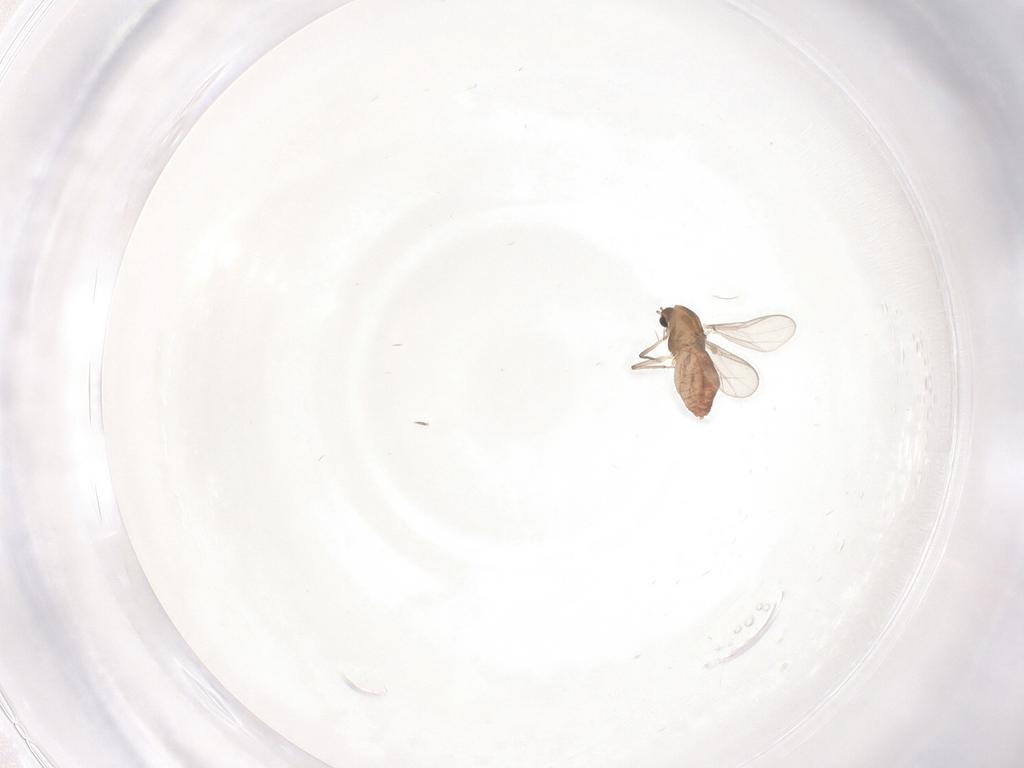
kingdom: Animalia
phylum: Arthropoda
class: Insecta
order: Diptera
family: Chironomidae
